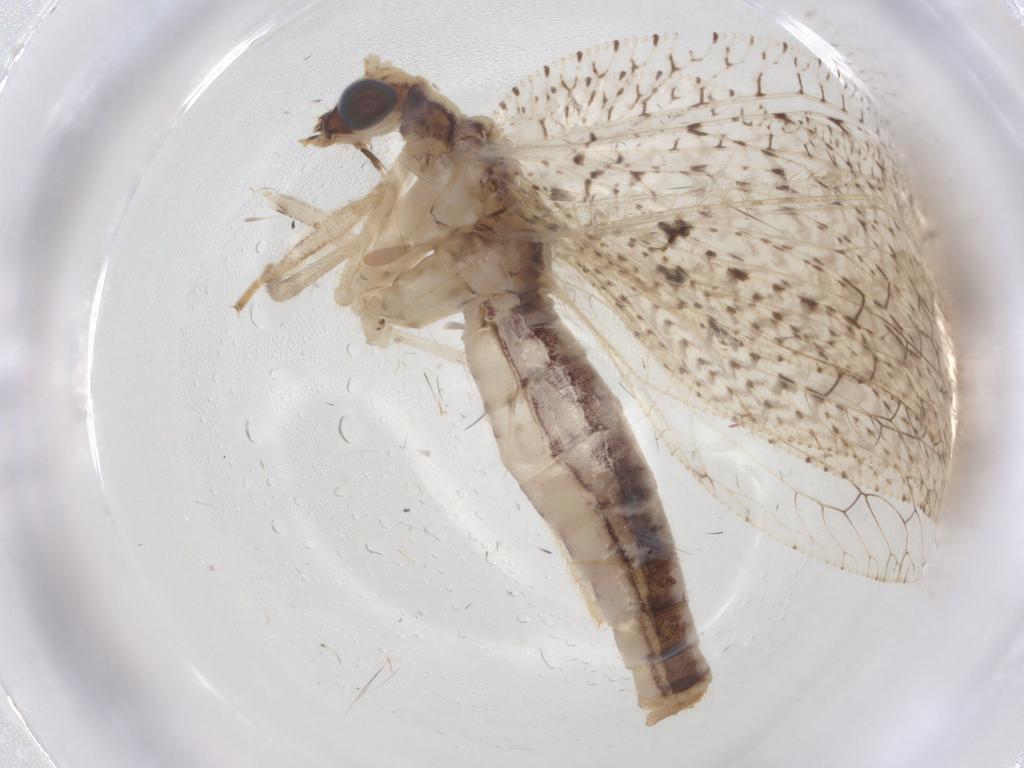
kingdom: Animalia
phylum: Arthropoda
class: Insecta
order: Neuroptera
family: Hemerobiidae
